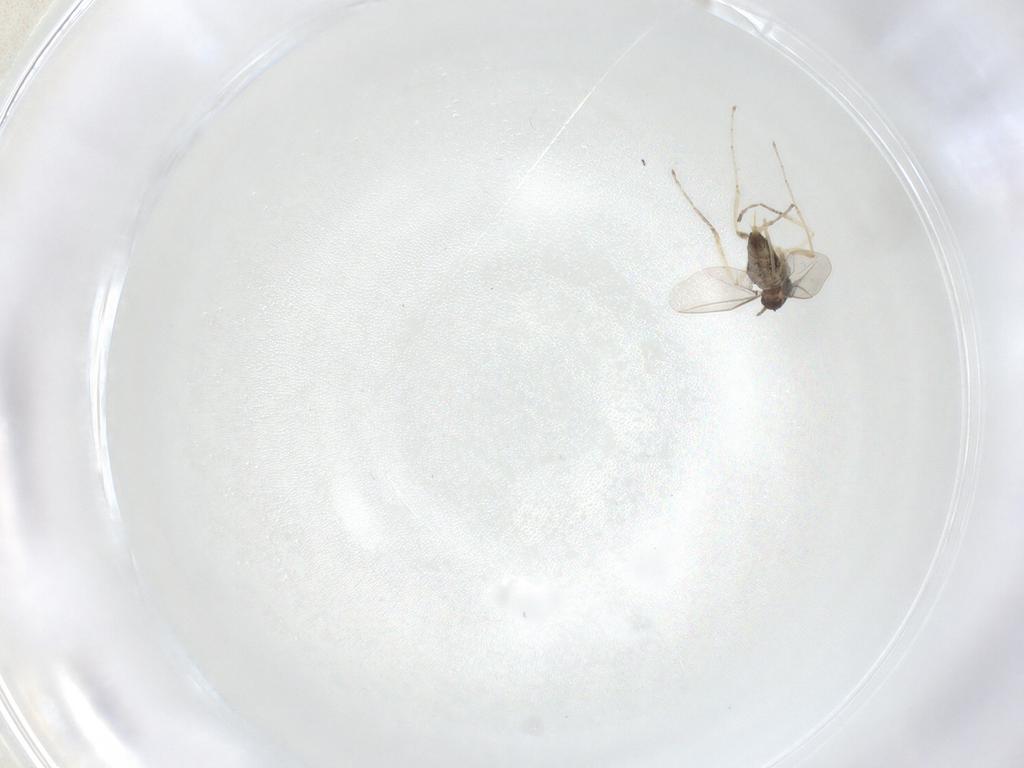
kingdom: Animalia
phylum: Arthropoda
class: Insecta
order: Diptera
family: Cecidomyiidae
